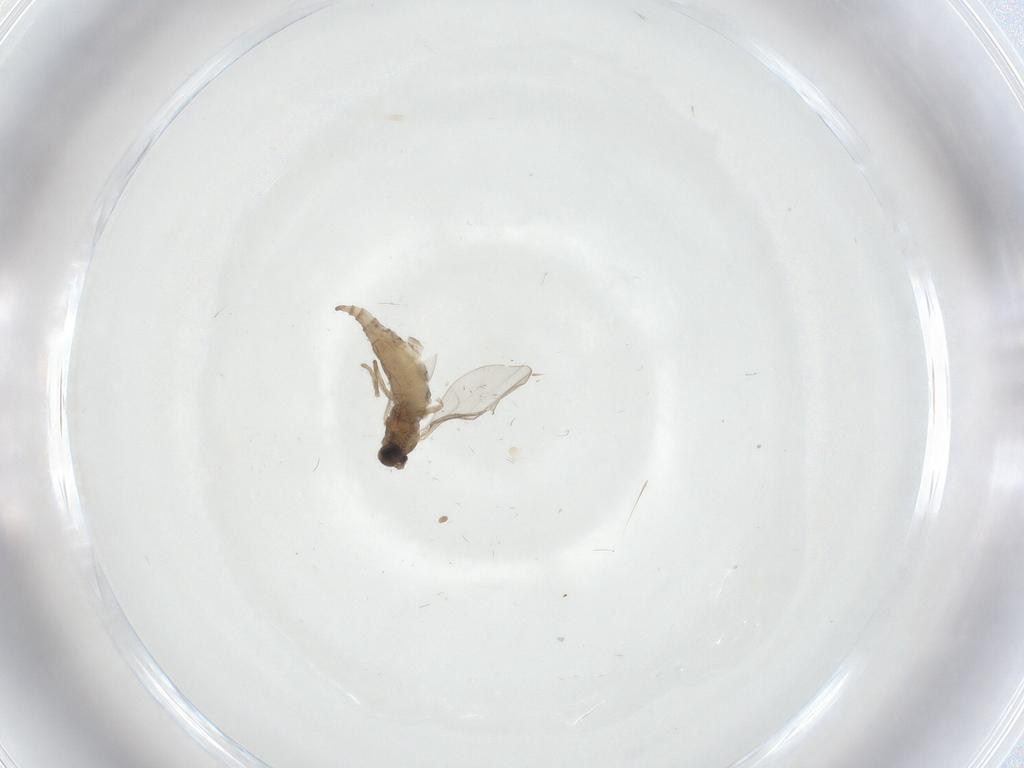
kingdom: Animalia
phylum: Arthropoda
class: Insecta
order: Diptera
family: Cecidomyiidae
